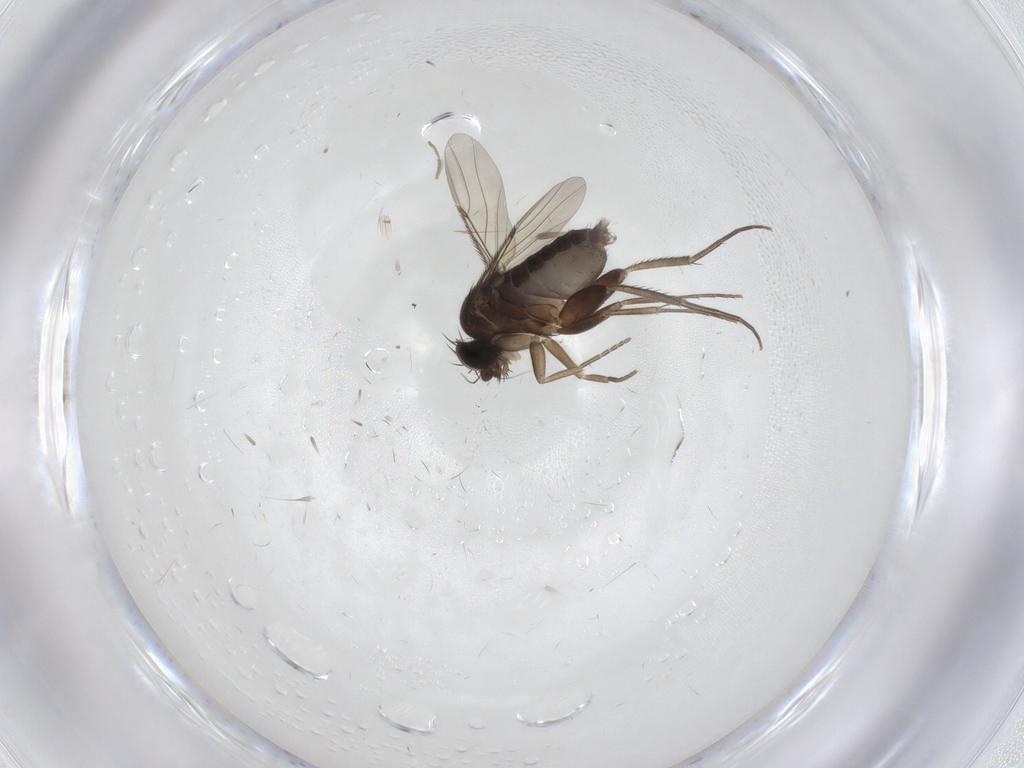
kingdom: Animalia
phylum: Arthropoda
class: Insecta
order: Diptera
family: Phoridae
